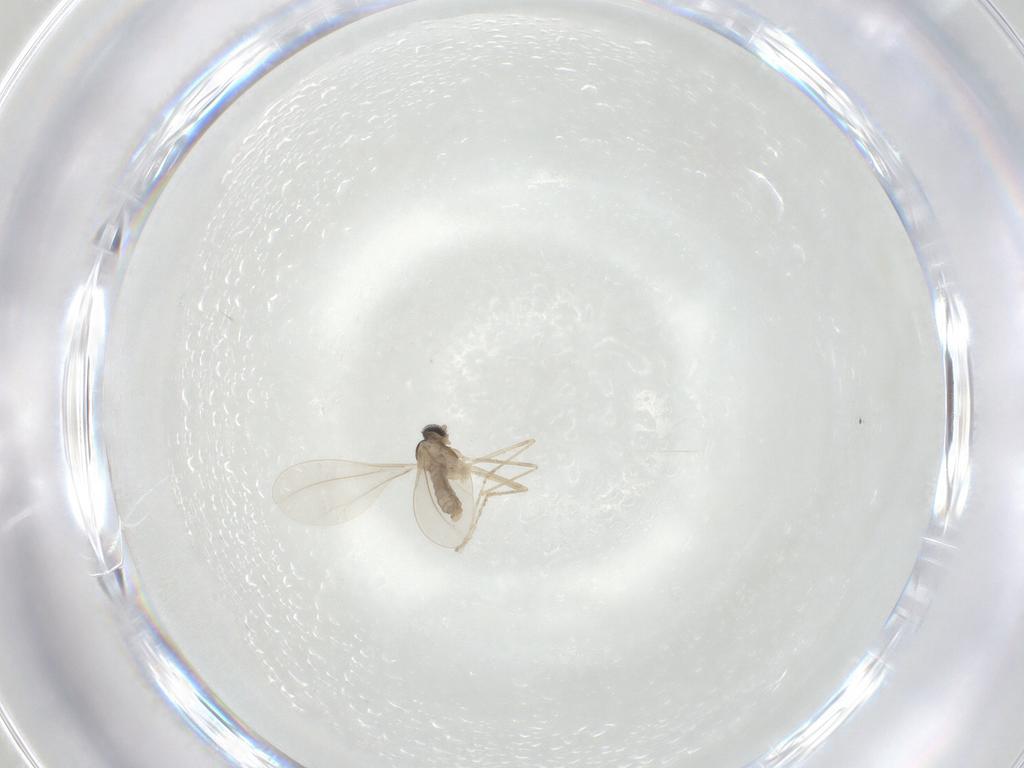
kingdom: Animalia
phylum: Arthropoda
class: Insecta
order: Diptera
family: Cecidomyiidae
